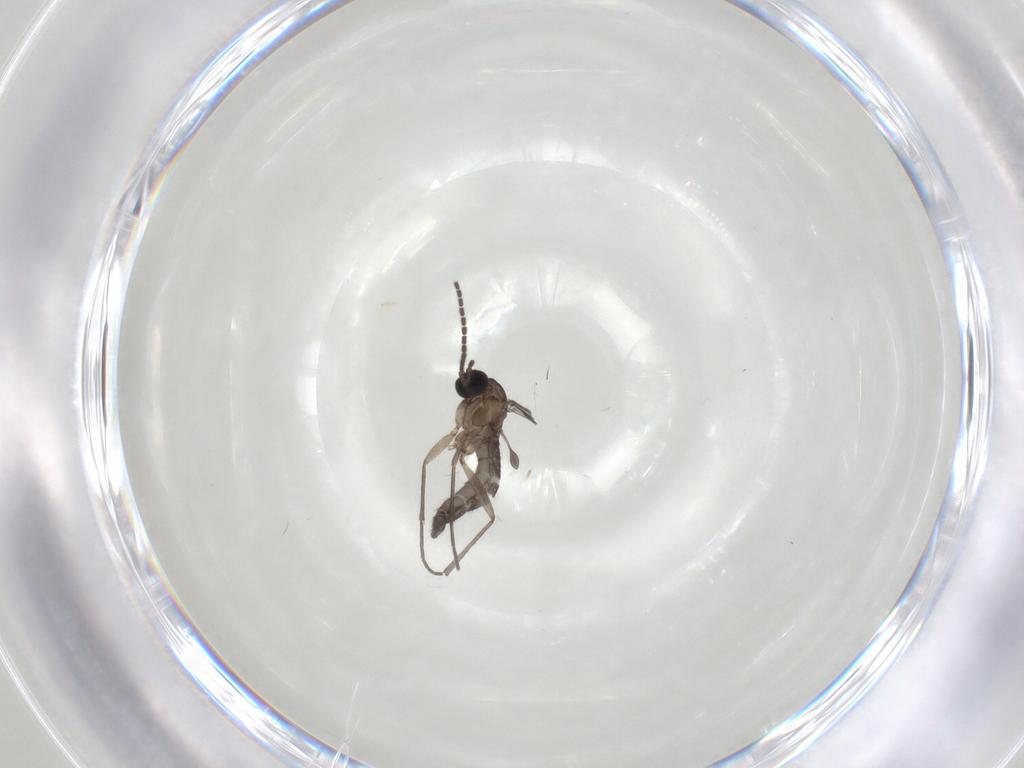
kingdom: Animalia
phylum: Arthropoda
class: Insecta
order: Diptera
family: Sciaridae
